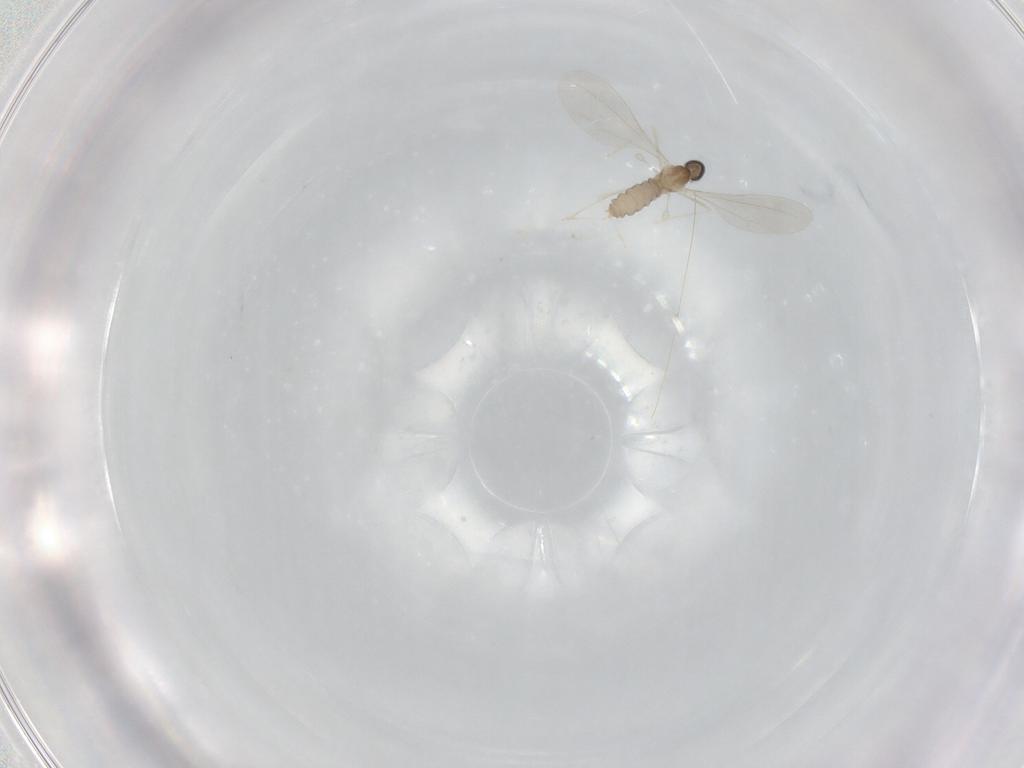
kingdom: Animalia
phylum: Arthropoda
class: Insecta
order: Diptera
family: Cecidomyiidae
